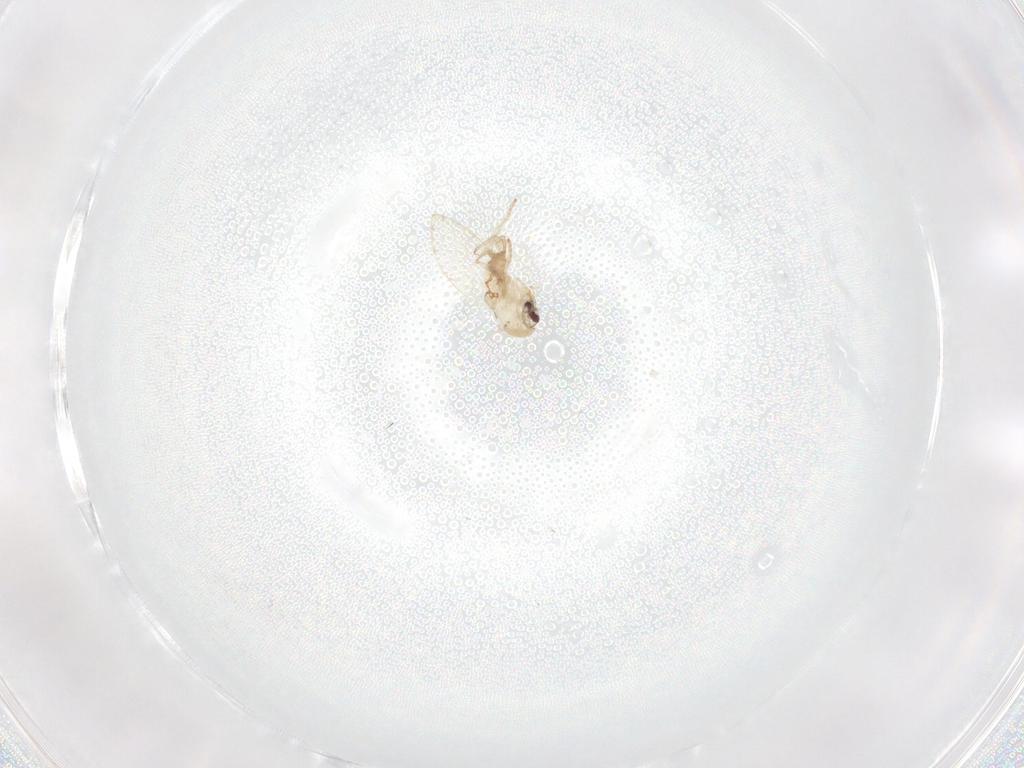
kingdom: Animalia
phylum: Arthropoda
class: Insecta
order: Diptera
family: Psychodidae
